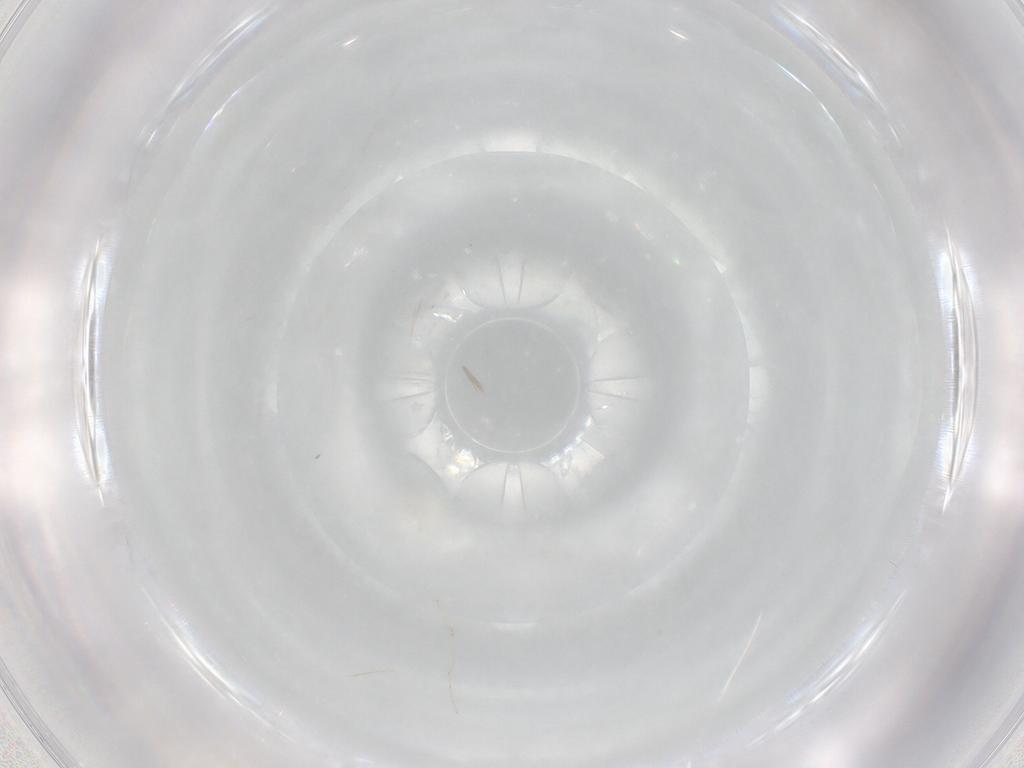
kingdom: Animalia
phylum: Arthropoda
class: Insecta
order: Diptera
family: Cecidomyiidae
